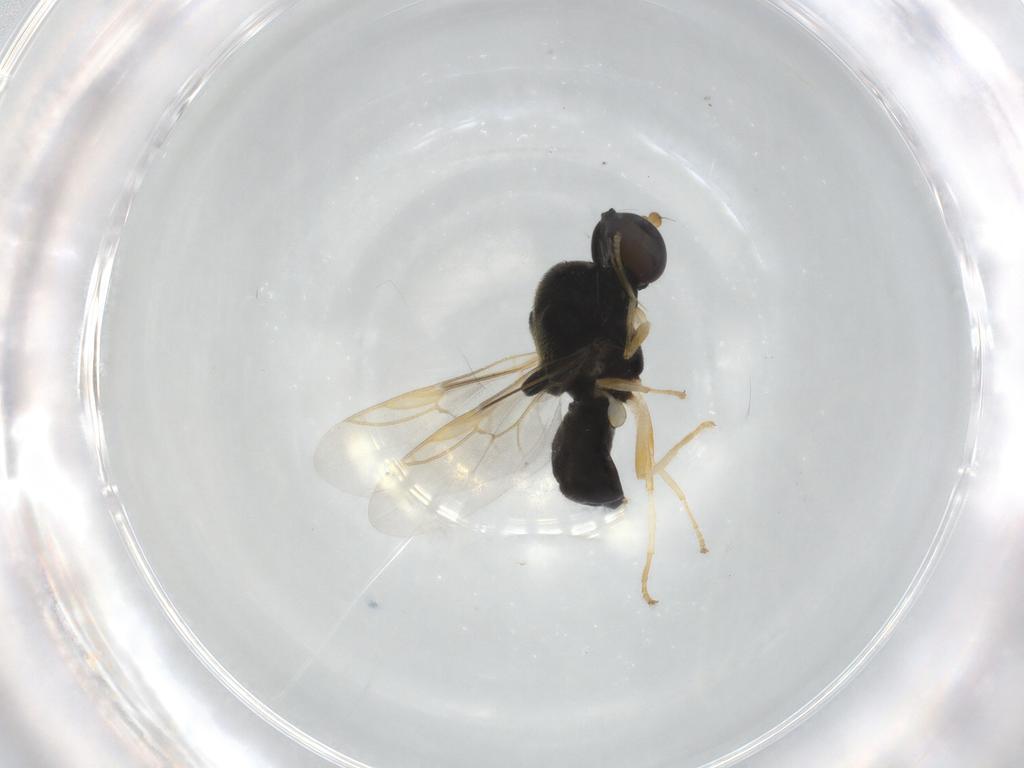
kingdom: Animalia
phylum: Arthropoda
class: Insecta
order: Diptera
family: Stratiomyidae
